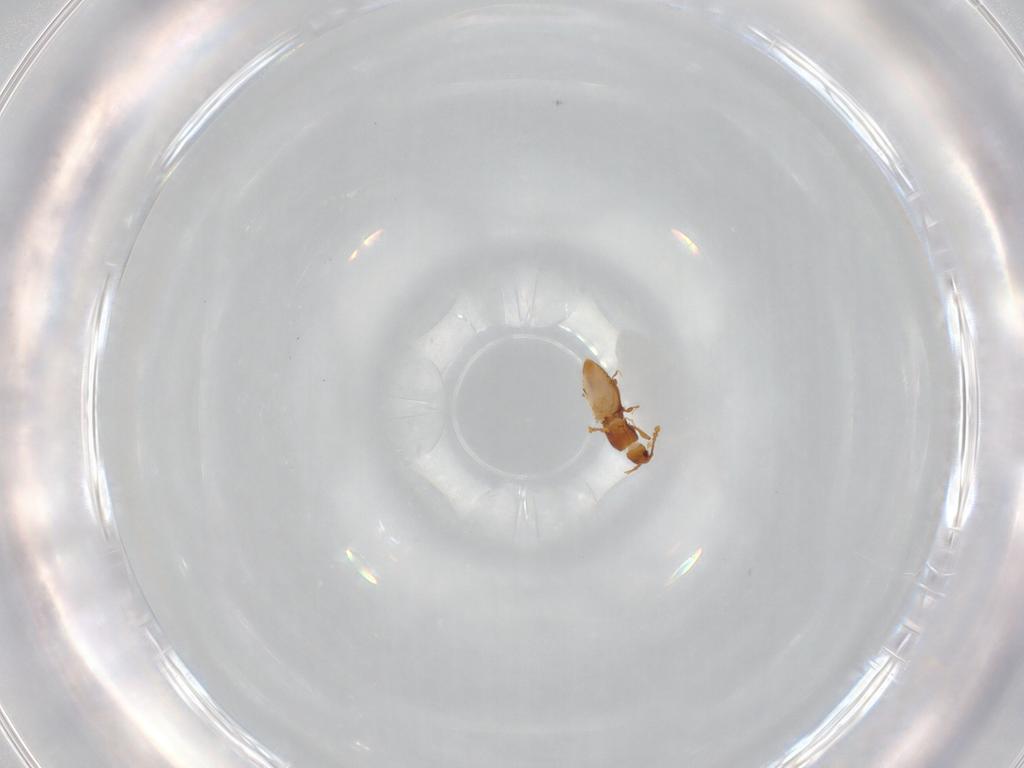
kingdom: Animalia
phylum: Arthropoda
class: Insecta
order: Coleoptera
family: Staphylinidae
